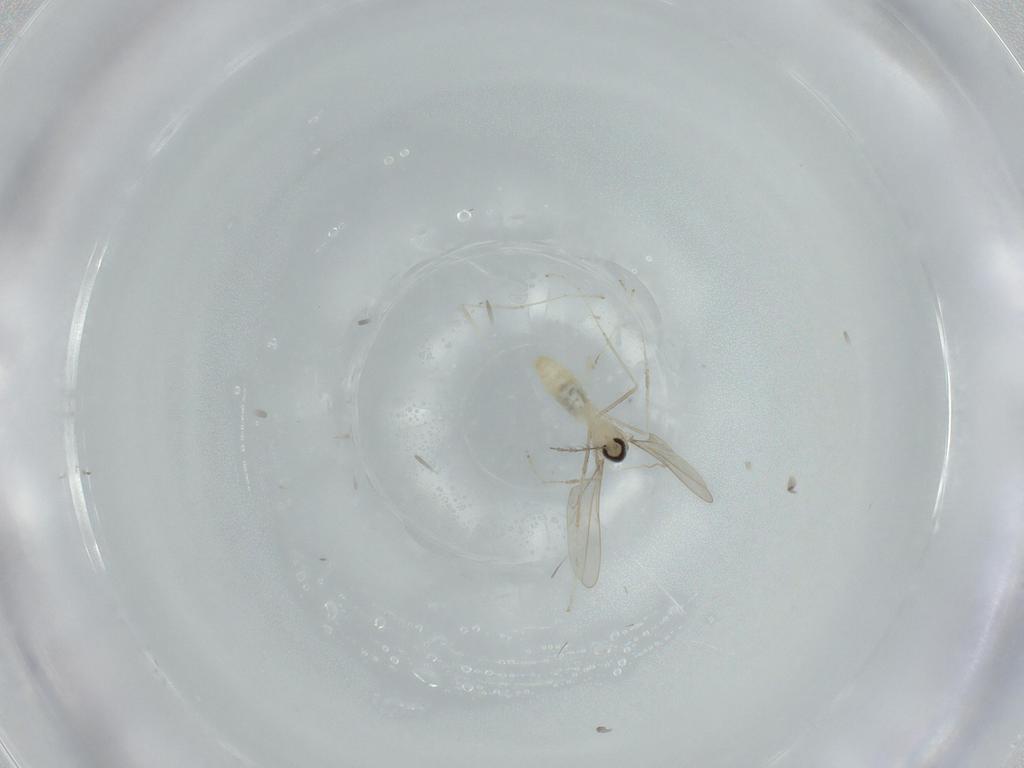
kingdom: Animalia
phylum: Arthropoda
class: Insecta
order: Diptera
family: Cecidomyiidae
